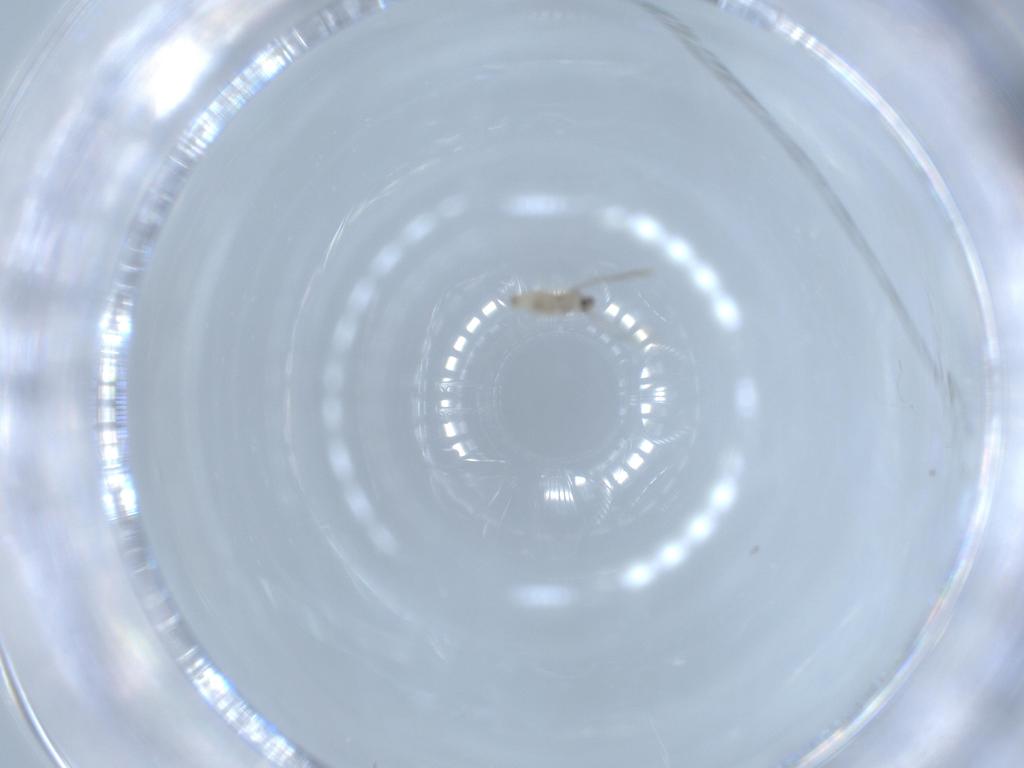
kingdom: Animalia
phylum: Arthropoda
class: Insecta
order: Diptera
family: Cecidomyiidae
